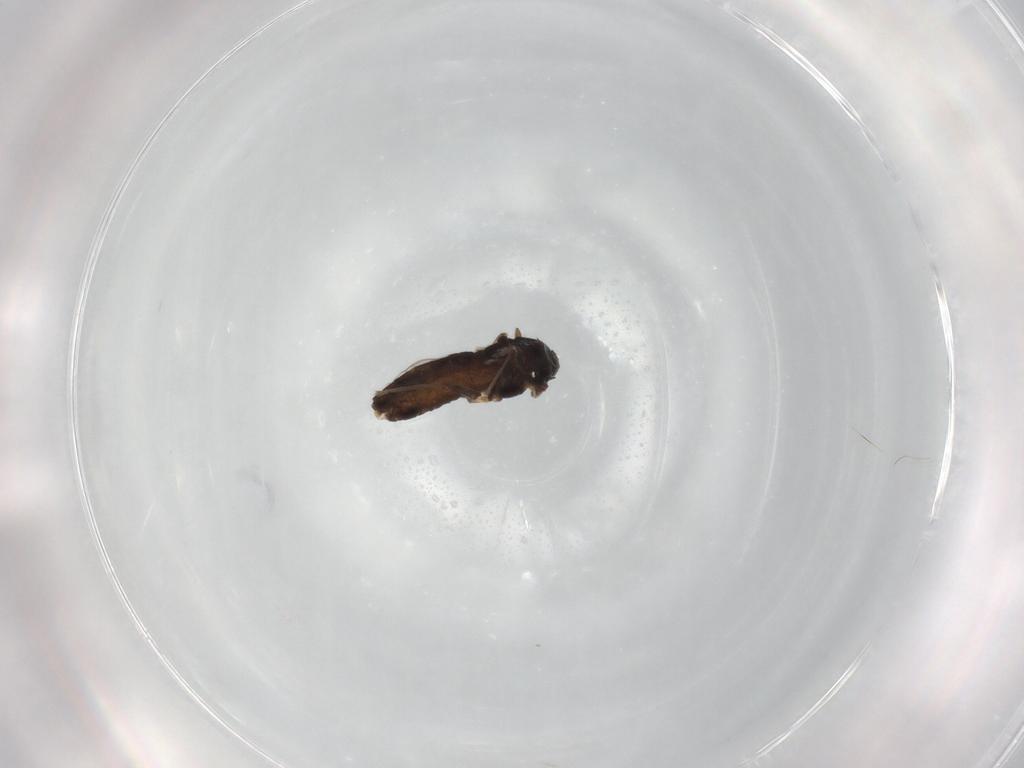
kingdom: Animalia
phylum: Arthropoda
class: Insecta
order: Diptera
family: Chironomidae
